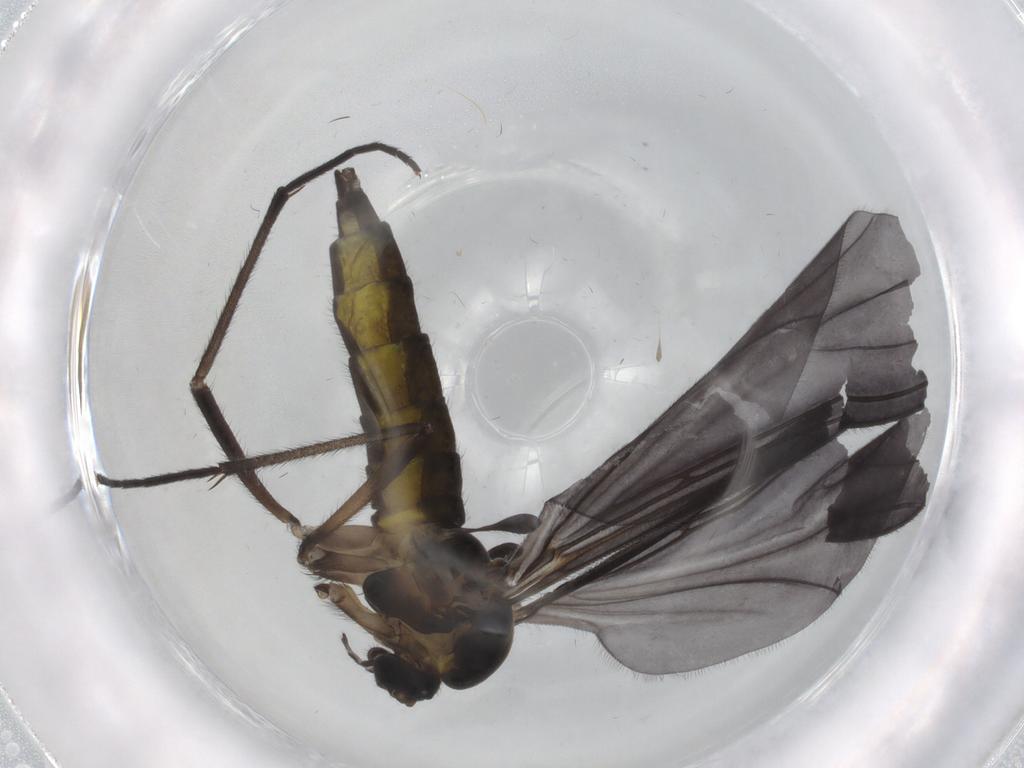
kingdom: Animalia
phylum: Arthropoda
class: Insecta
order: Diptera
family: Sciaridae
